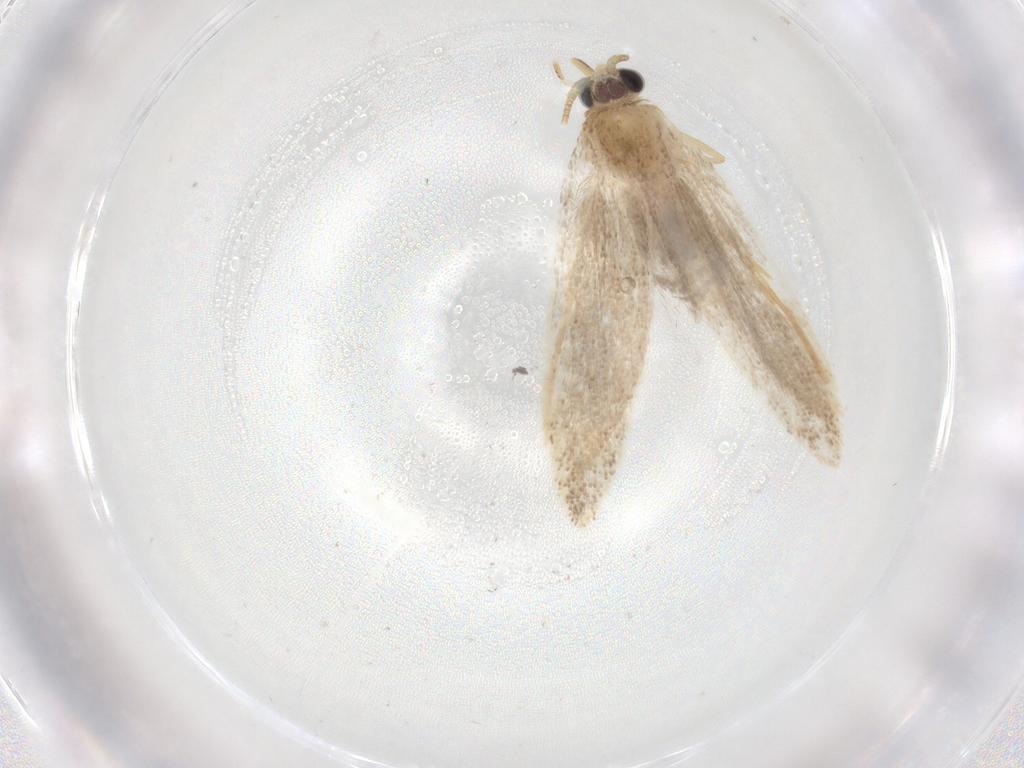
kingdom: Animalia
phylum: Arthropoda
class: Insecta
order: Lepidoptera
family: Nepticulidae
